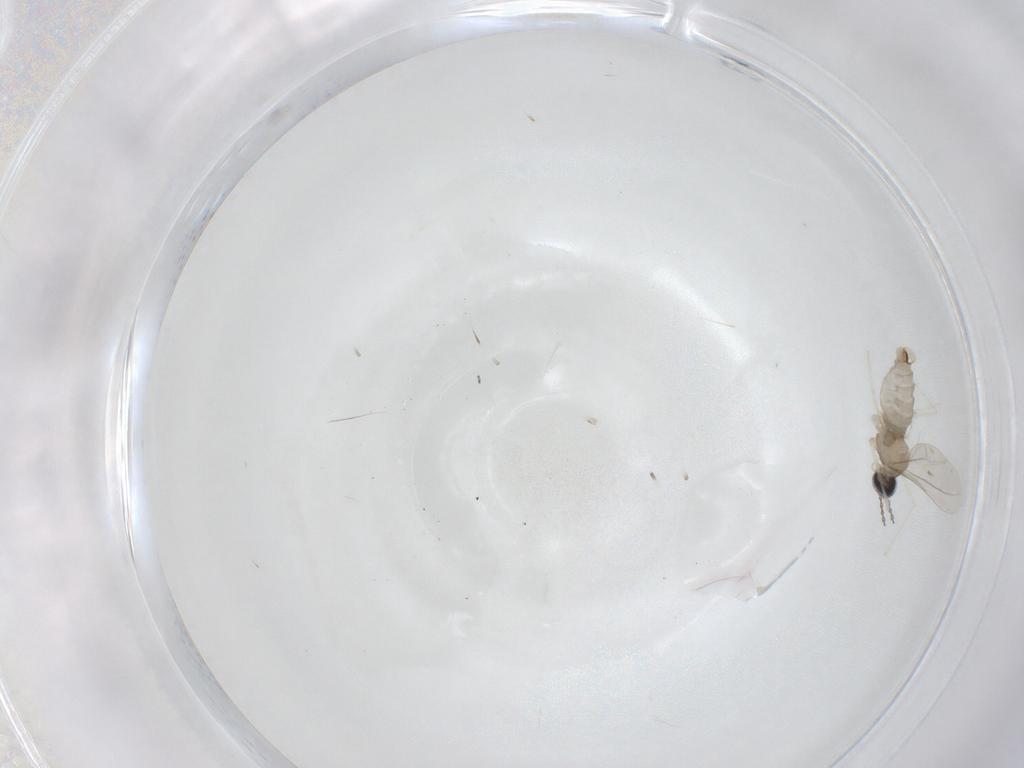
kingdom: Animalia
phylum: Arthropoda
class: Insecta
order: Diptera
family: Cecidomyiidae
